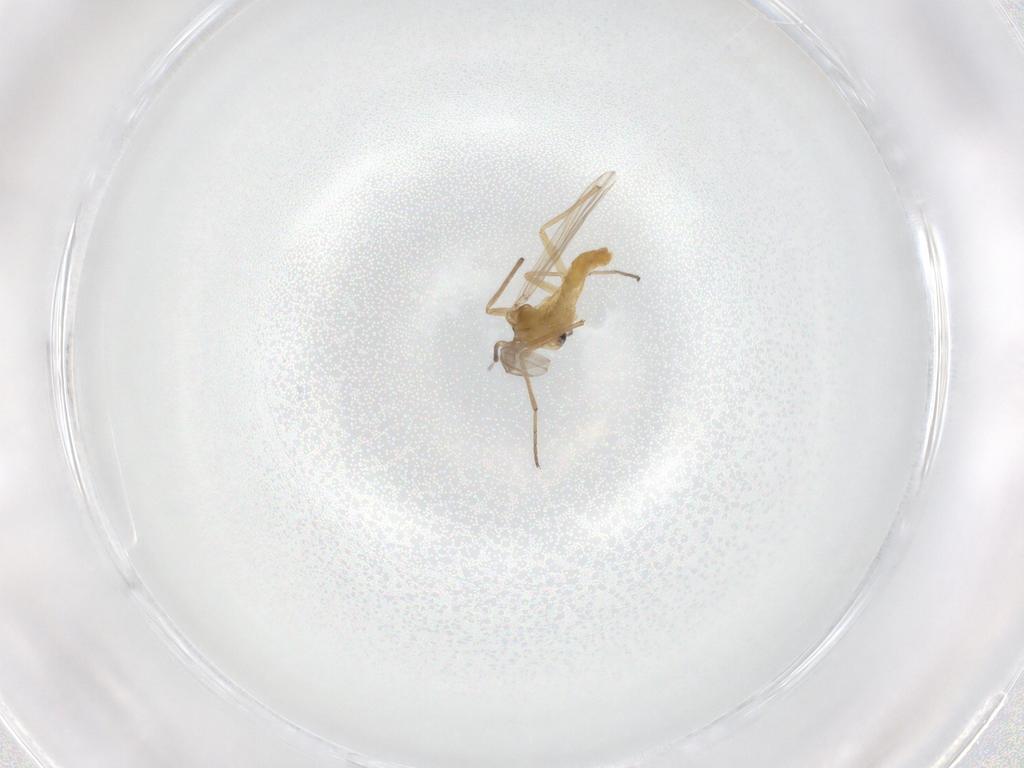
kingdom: Animalia
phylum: Arthropoda
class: Insecta
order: Diptera
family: Chironomidae
